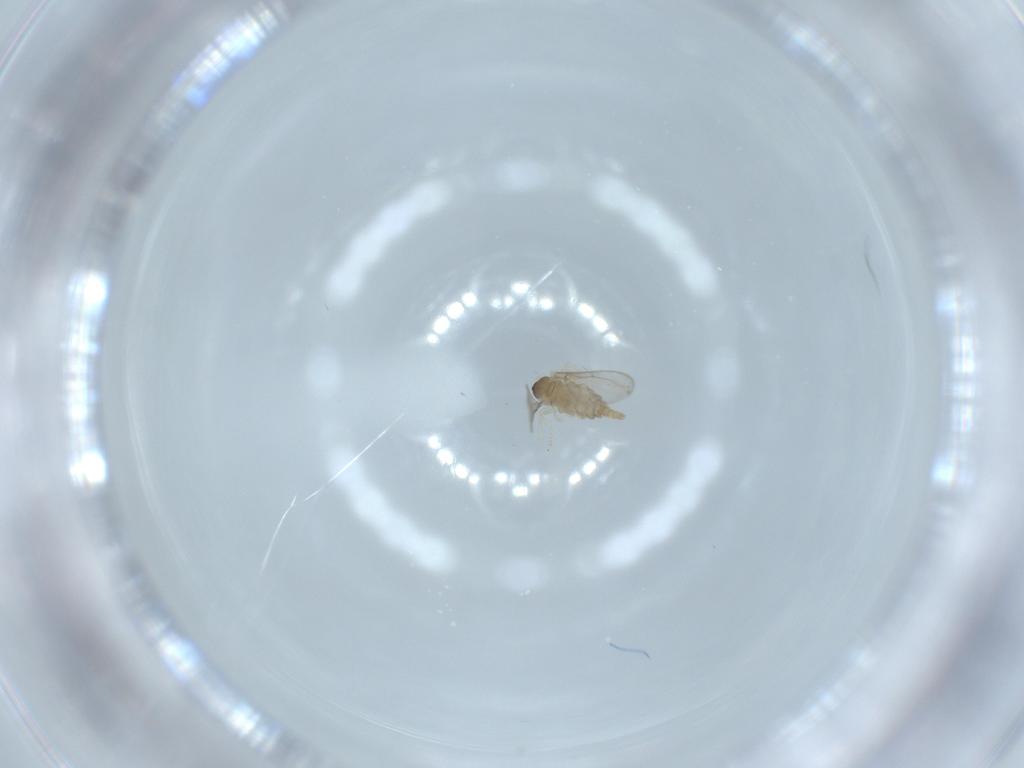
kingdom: Animalia
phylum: Arthropoda
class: Insecta
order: Diptera
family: Cecidomyiidae
